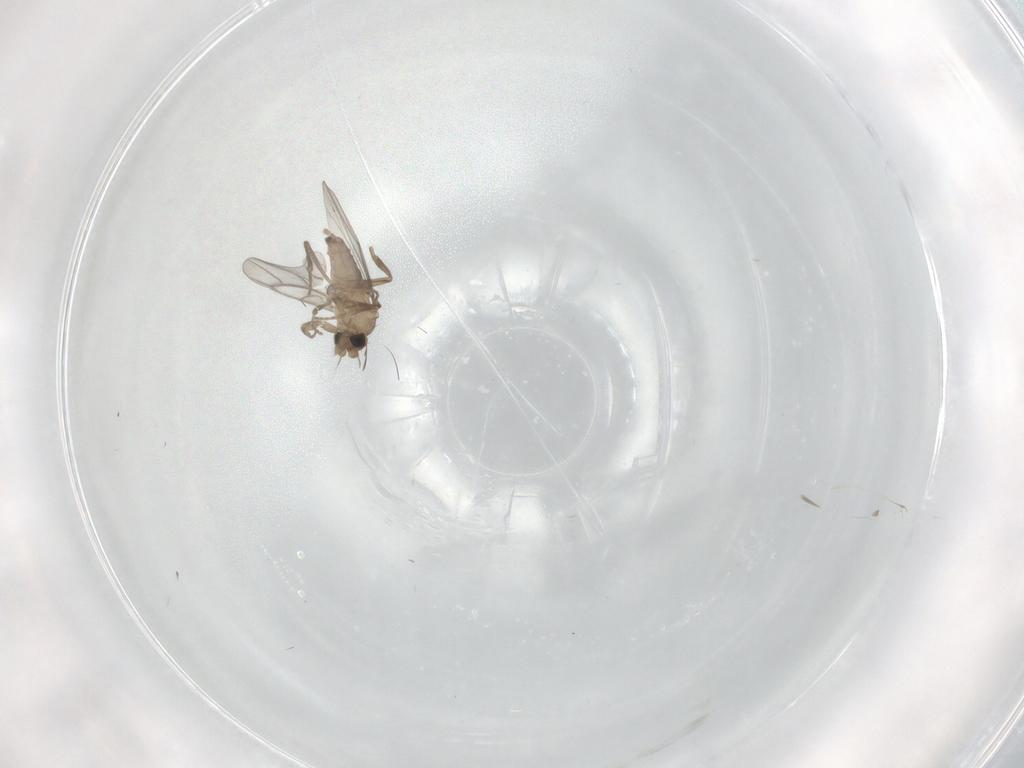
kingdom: Animalia
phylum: Arthropoda
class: Insecta
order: Diptera
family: Chironomidae
